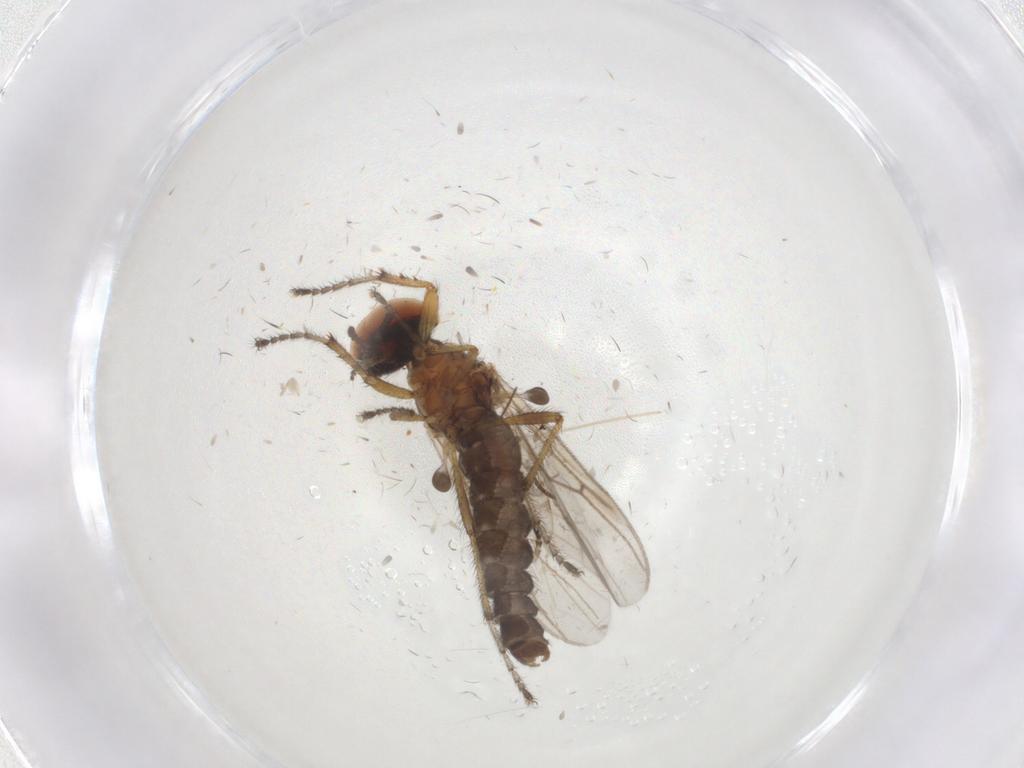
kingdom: Animalia
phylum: Arthropoda
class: Insecta
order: Diptera
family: Bibionidae
